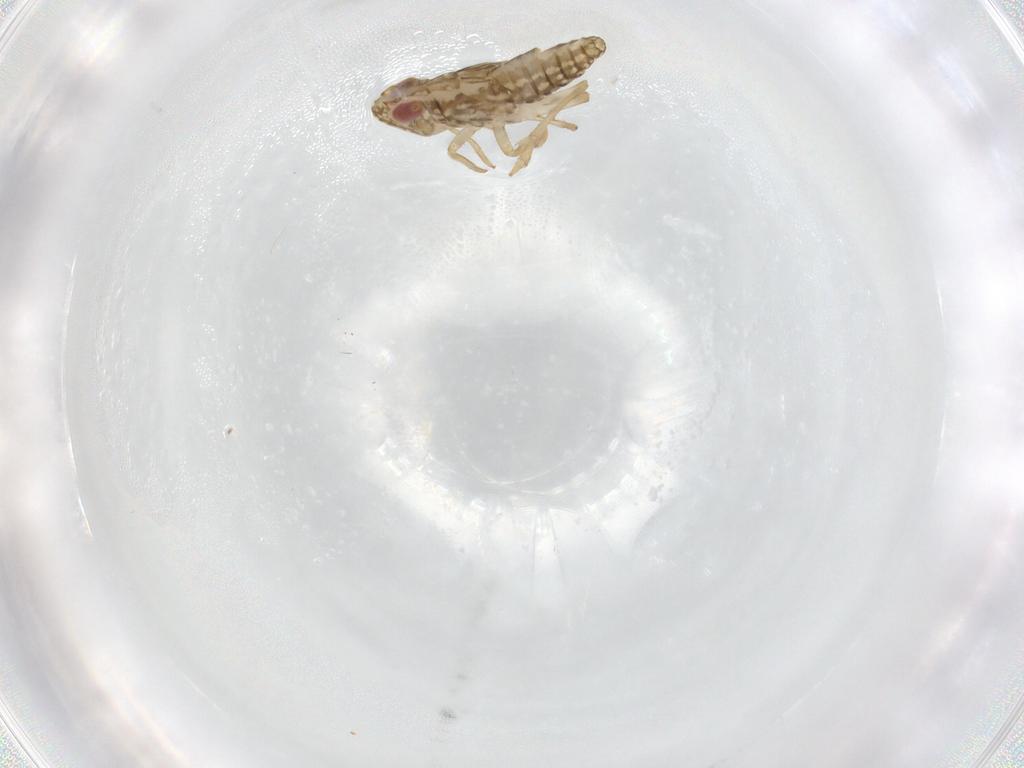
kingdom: Animalia
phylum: Arthropoda
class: Insecta
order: Hemiptera
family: Delphacidae
